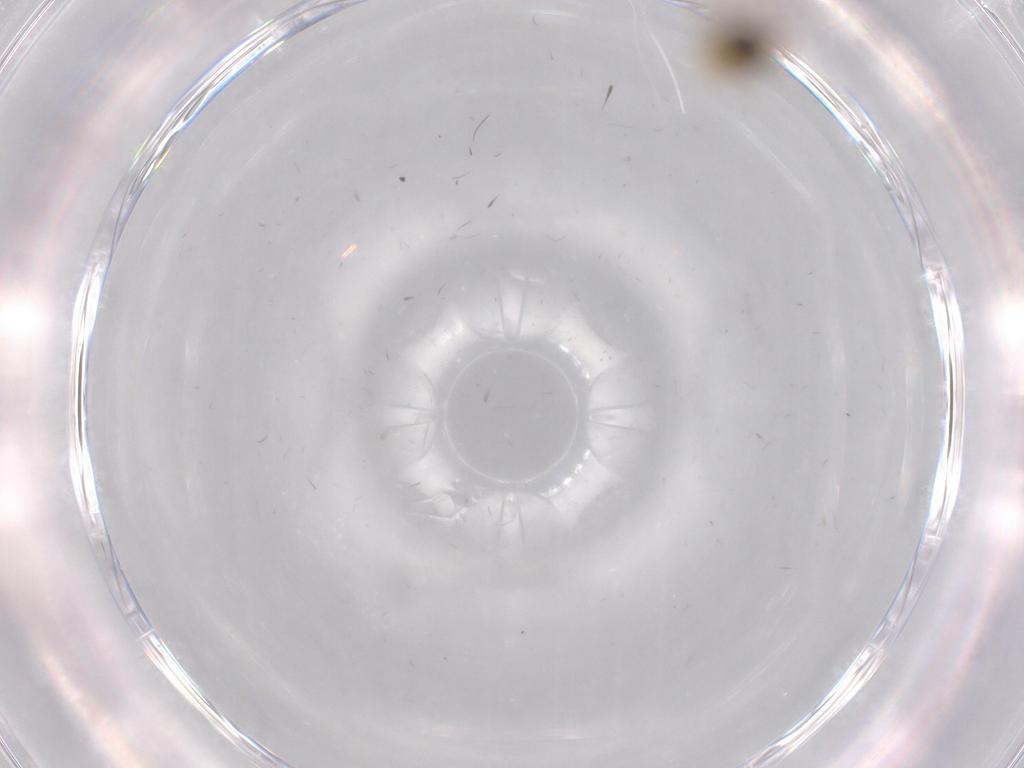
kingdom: Animalia
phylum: Arthropoda
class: Insecta
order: Diptera
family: Cecidomyiidae
